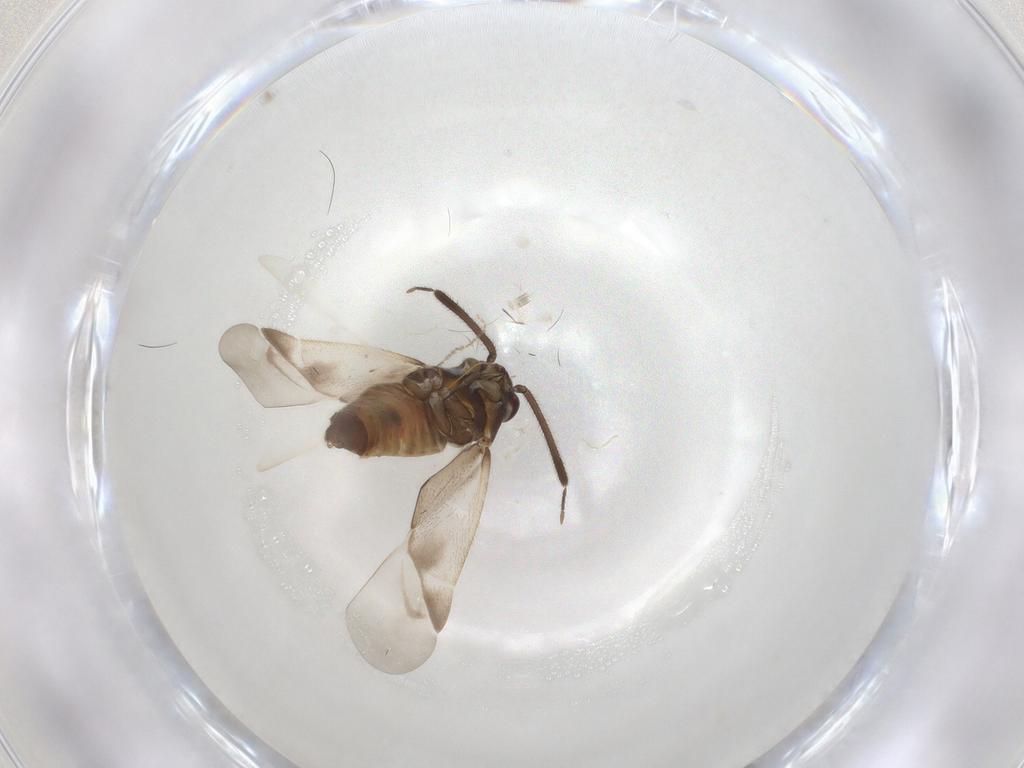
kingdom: Animalia
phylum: Arthropoda
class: Insecta
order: Hemiptera
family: Miridae
